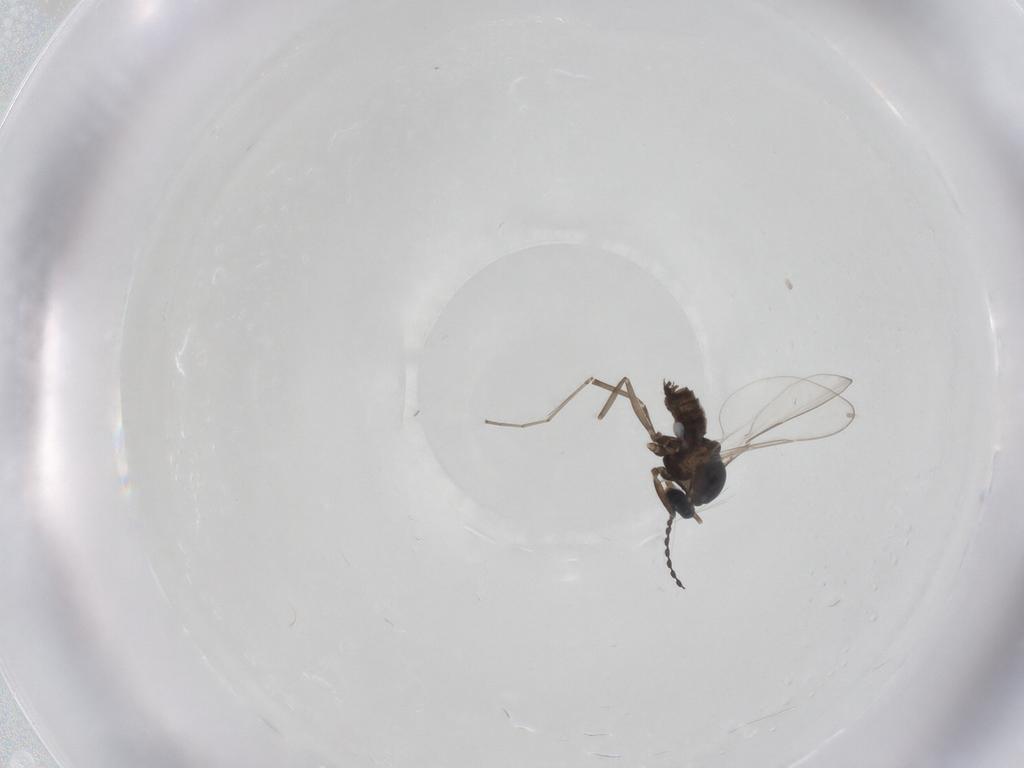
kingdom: Animalia
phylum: Arthropoda
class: Insecta
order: Diptera
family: Cecidomyiidae
